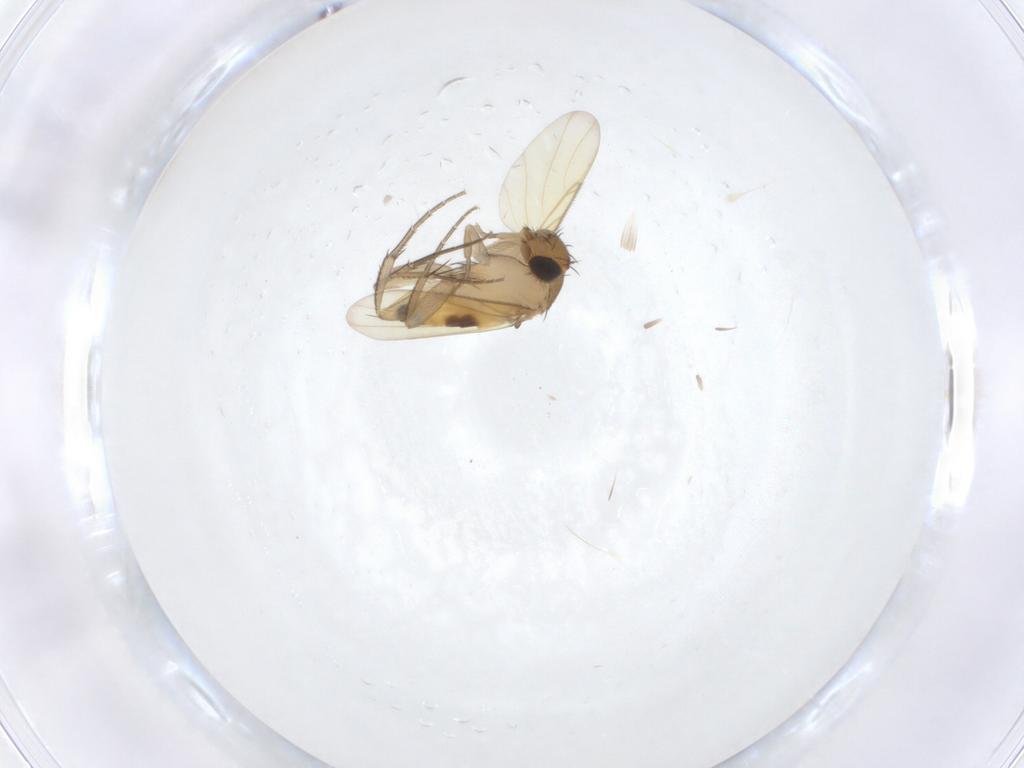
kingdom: Animalia
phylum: Arthropoda
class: Insecta
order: Diptera
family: Phoridae
